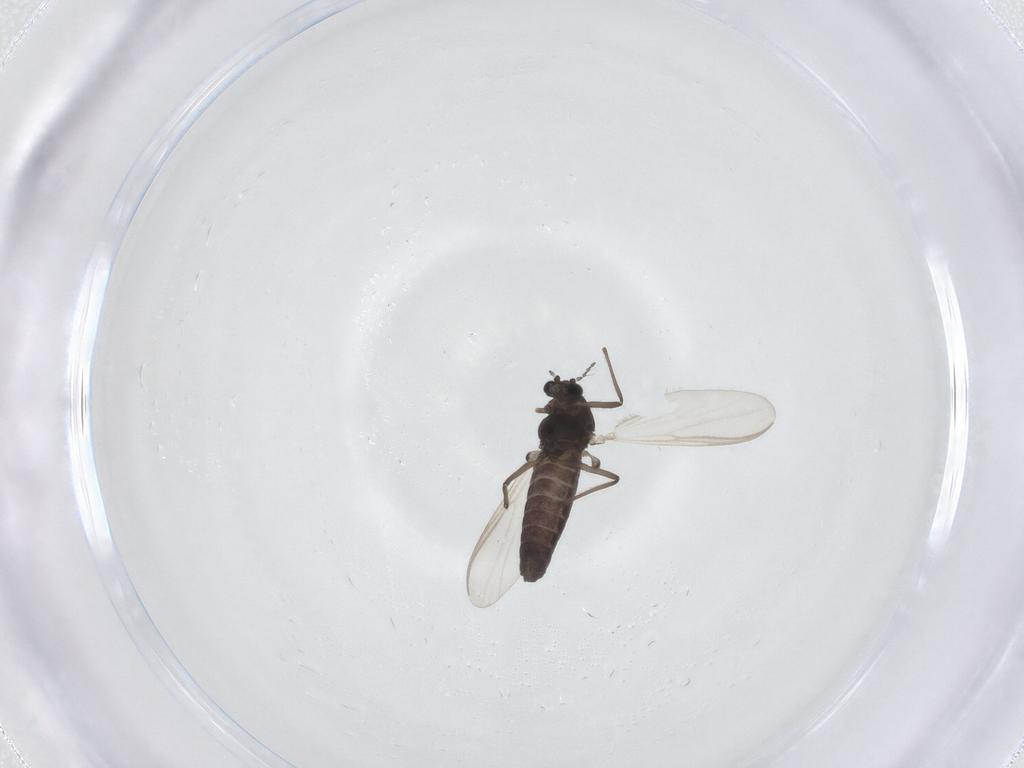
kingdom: Animalia
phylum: Arthropoda
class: Insecta
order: Diptera
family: Chironomidae
